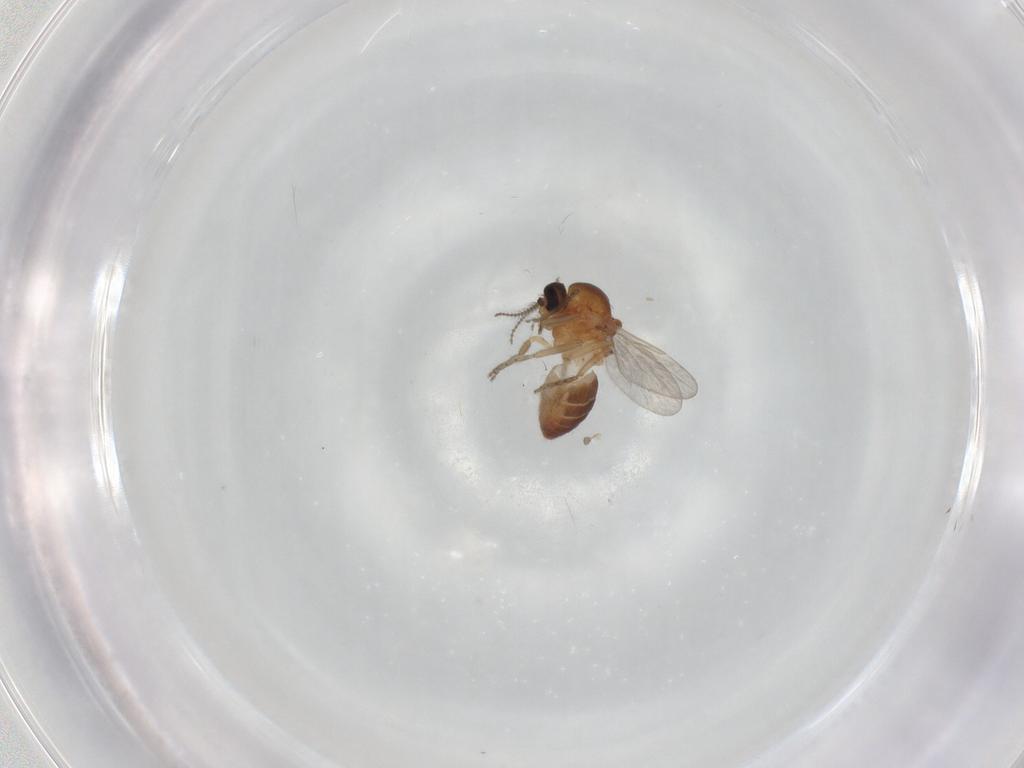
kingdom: Animalia
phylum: Arthropoda
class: Insecta
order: Diptera
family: Ceratopogonidae
